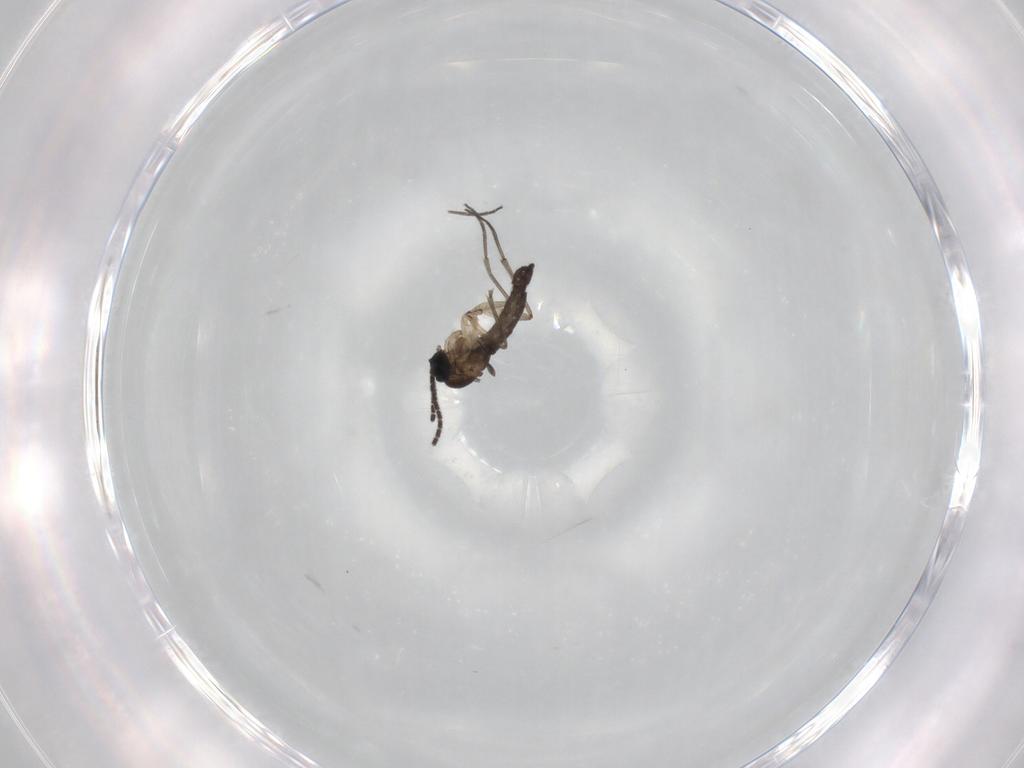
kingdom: Animalia
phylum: Arthropoda
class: Insecta
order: Diptera
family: Sciaridae
